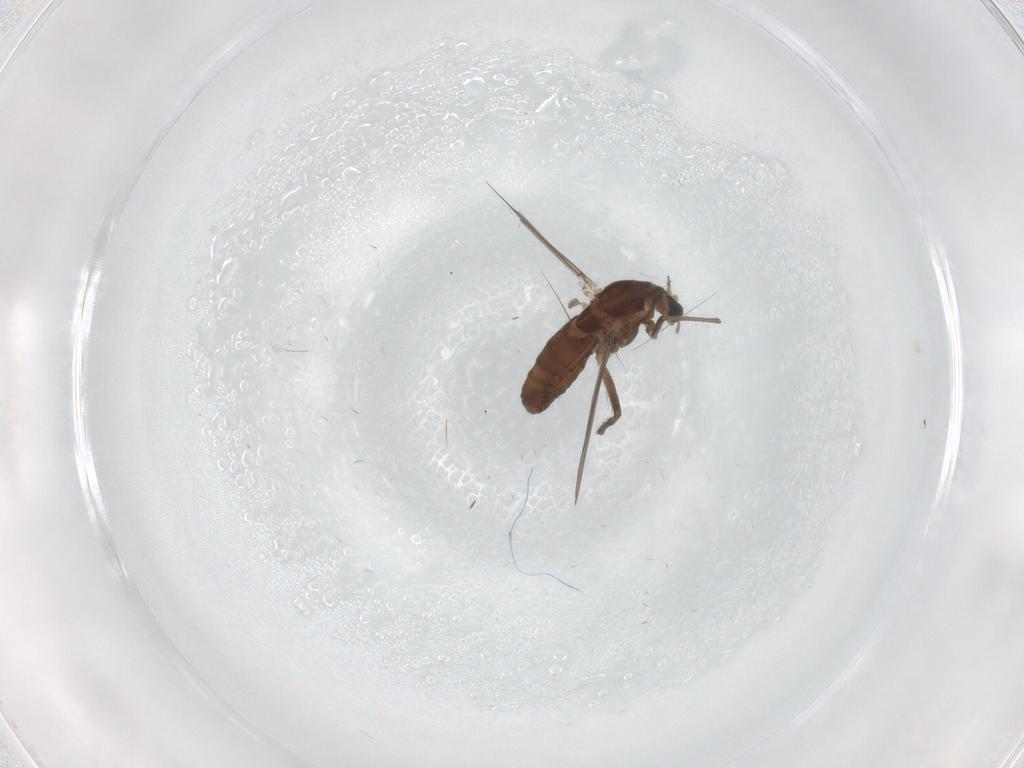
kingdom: Animalia
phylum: Arthropoda
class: Insecta
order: Diptera
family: Chironomidae
